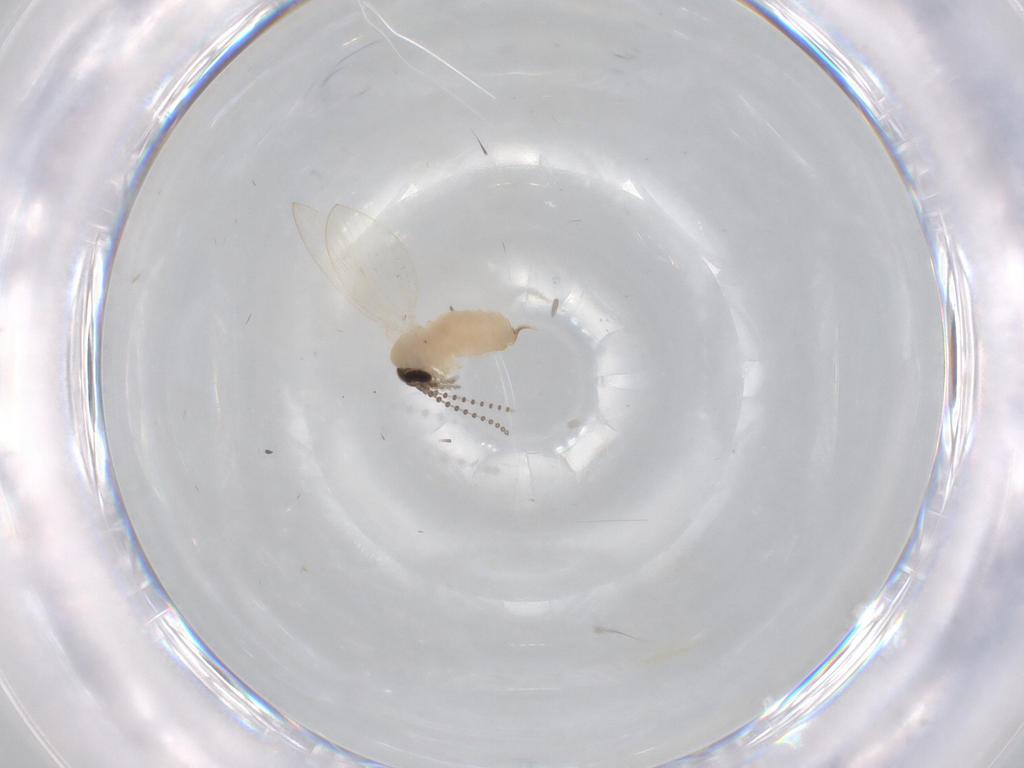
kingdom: Animalia
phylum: Arthropoda
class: Insecta
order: Diptera
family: Psychodidae
